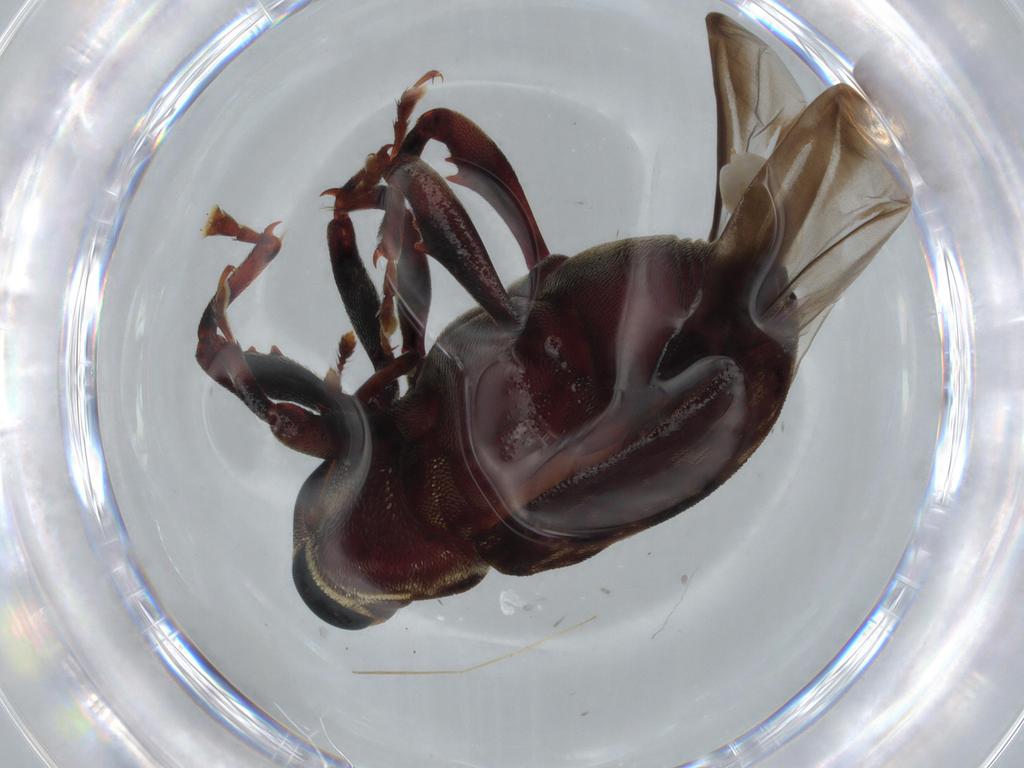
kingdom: Animalia
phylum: Arthropoda
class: Insecta
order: Coleoptera
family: Curculionidae
